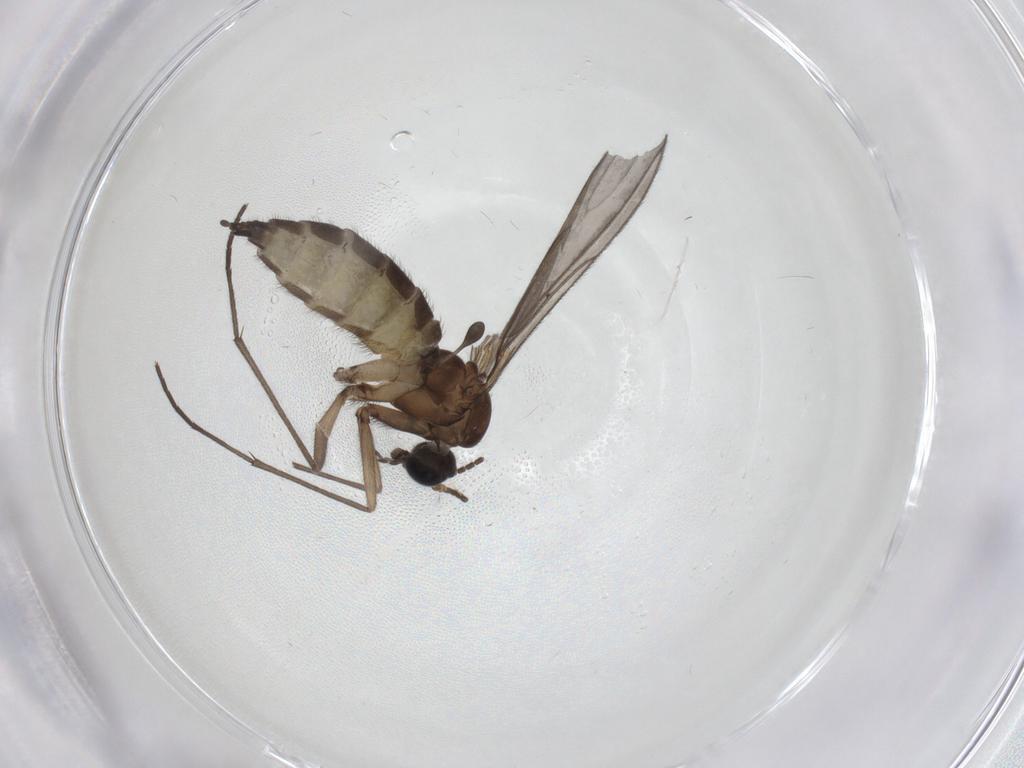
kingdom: Animalia
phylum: Arthropoda
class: Insecta
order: Diptera
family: Sciaridae
